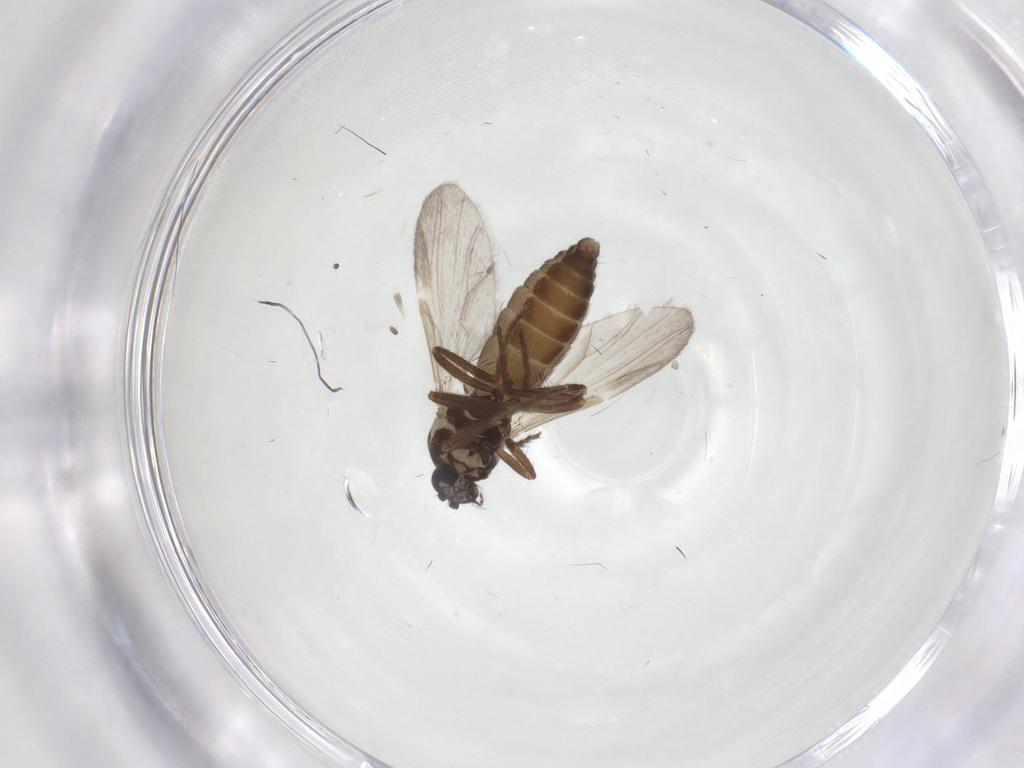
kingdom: Animalia
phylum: Arthropoda
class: Insecta
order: Diptera
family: Ceratopogonidae
